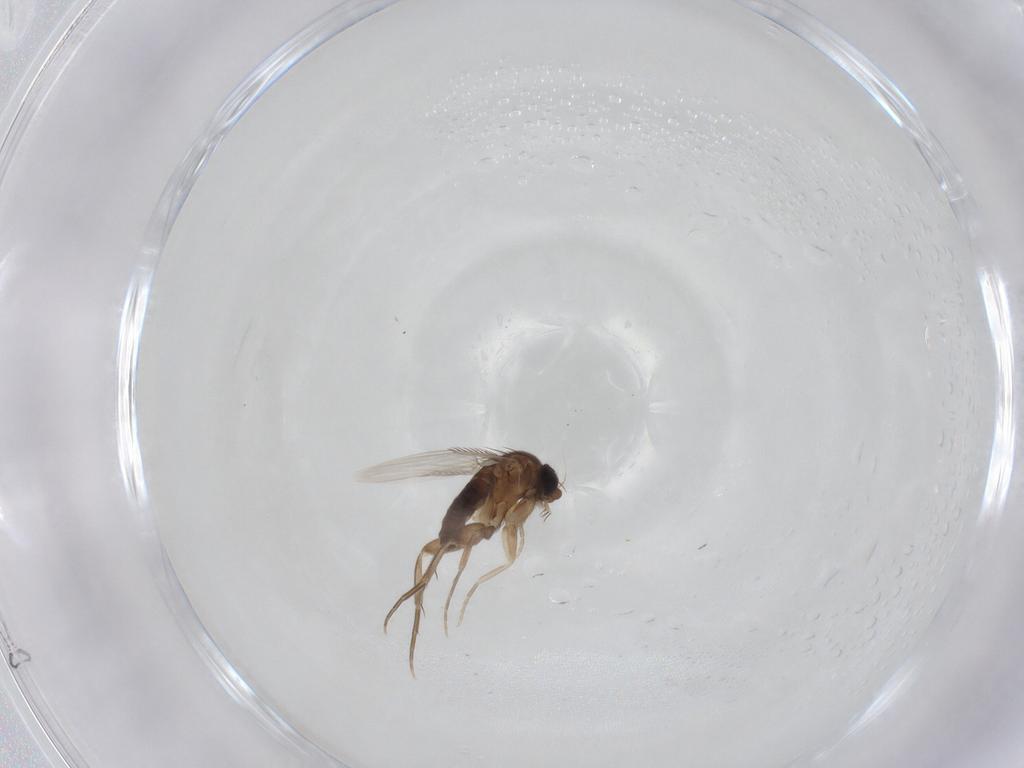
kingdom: Animalia
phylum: Arthropoda
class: Insecta
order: Diptera
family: Phoridae
